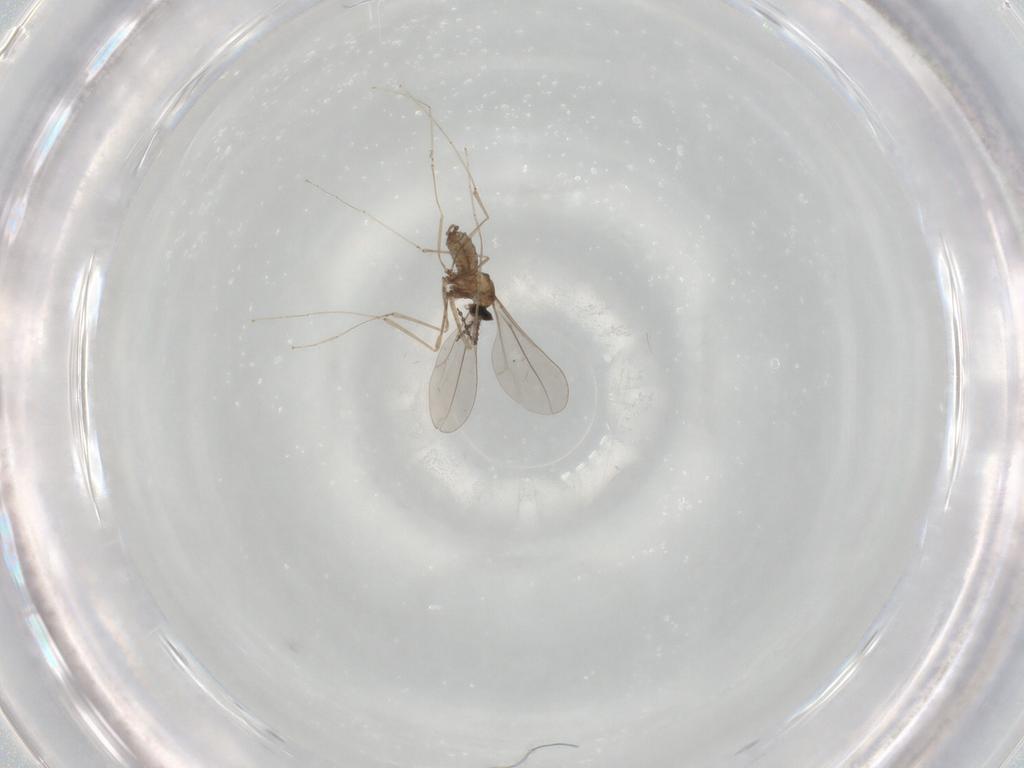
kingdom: Animalia
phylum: Arthropoda
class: Insecta
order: Diptera
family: Cecidomyiidae
